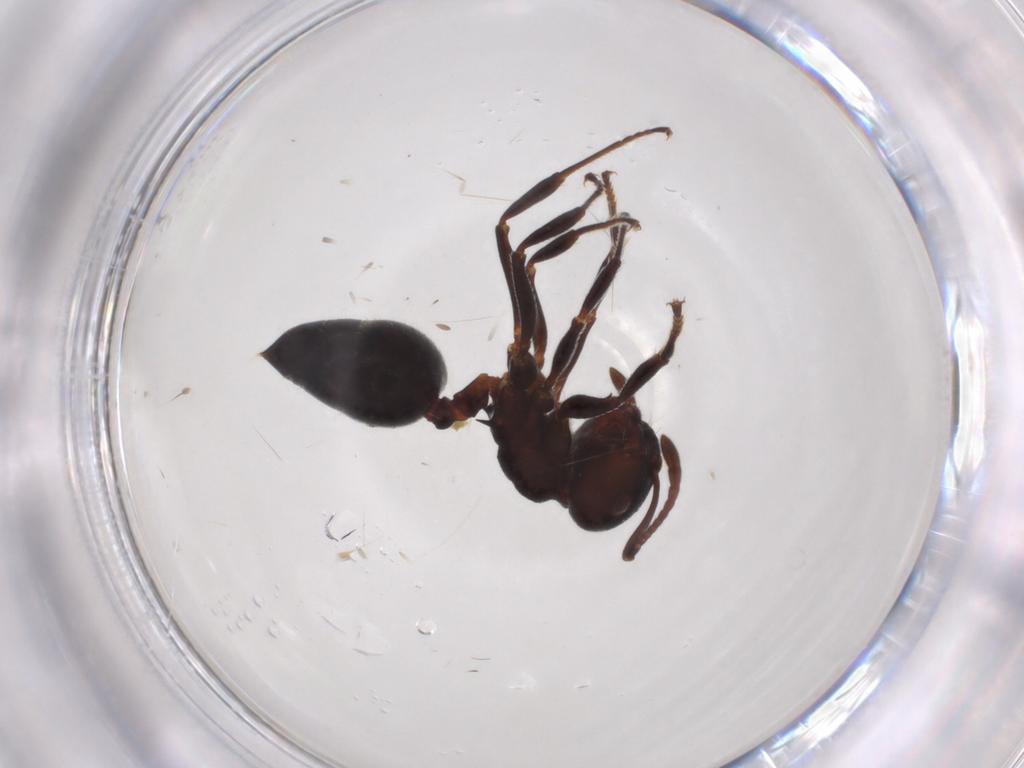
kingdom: Animalia
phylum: Arthropoda
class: Insecta
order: Hymenoptera
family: Formicidae
